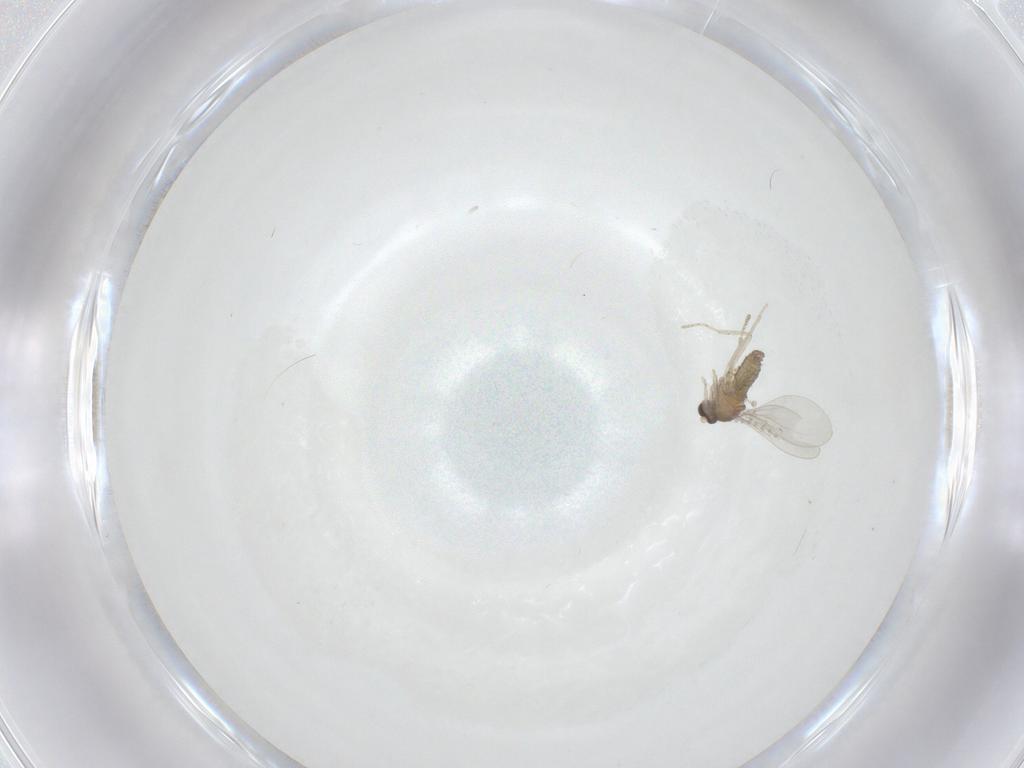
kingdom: Animalia
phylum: Arthropoda
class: Insecta
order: Diptera
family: Cecidomyiidae
